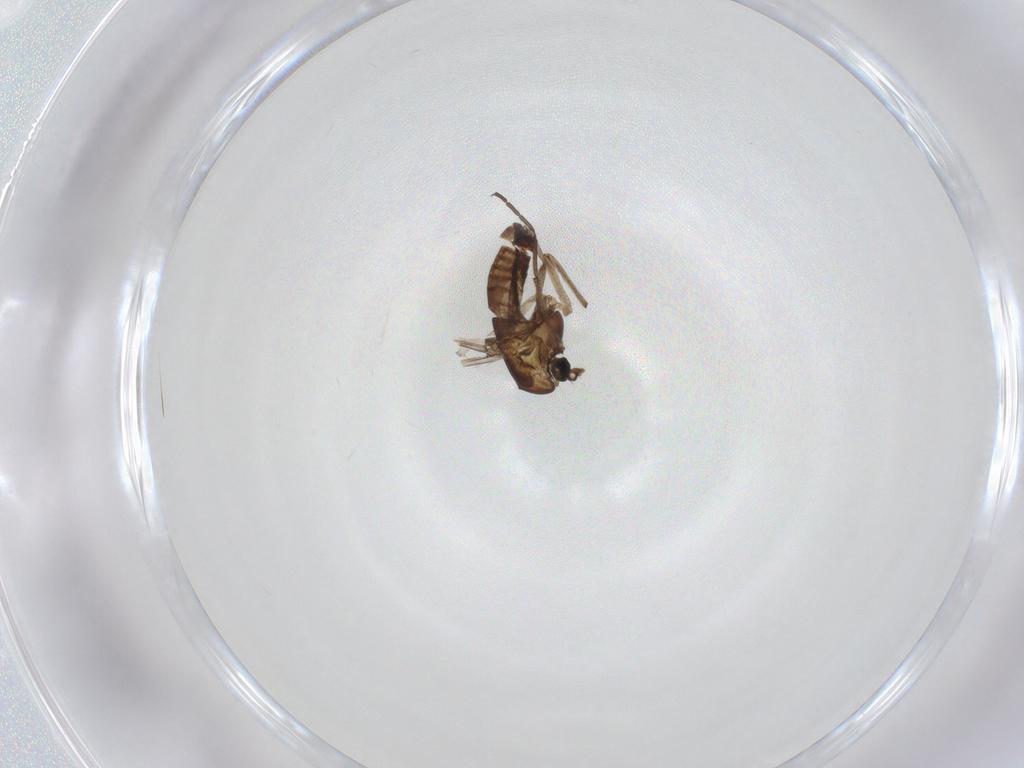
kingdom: Animalia
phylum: Arthropoda
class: Insecta
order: Diptera
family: Chironomidae
